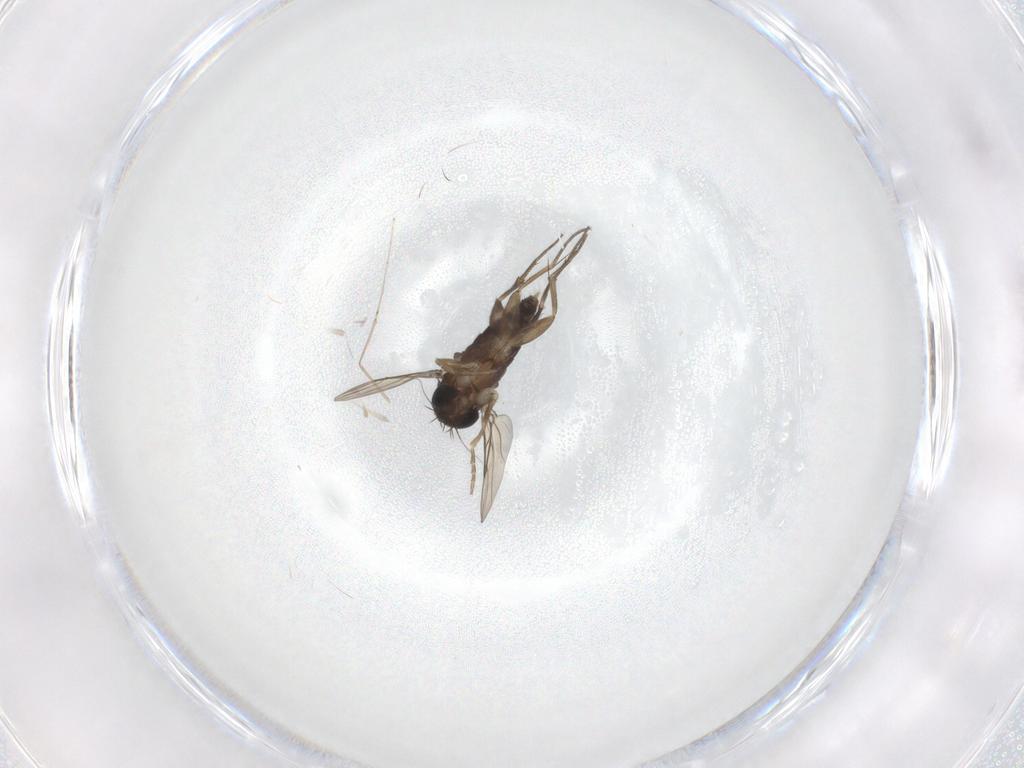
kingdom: Animalia
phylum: Arthropoda
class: Insecta
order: Diptera
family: Phoridae
